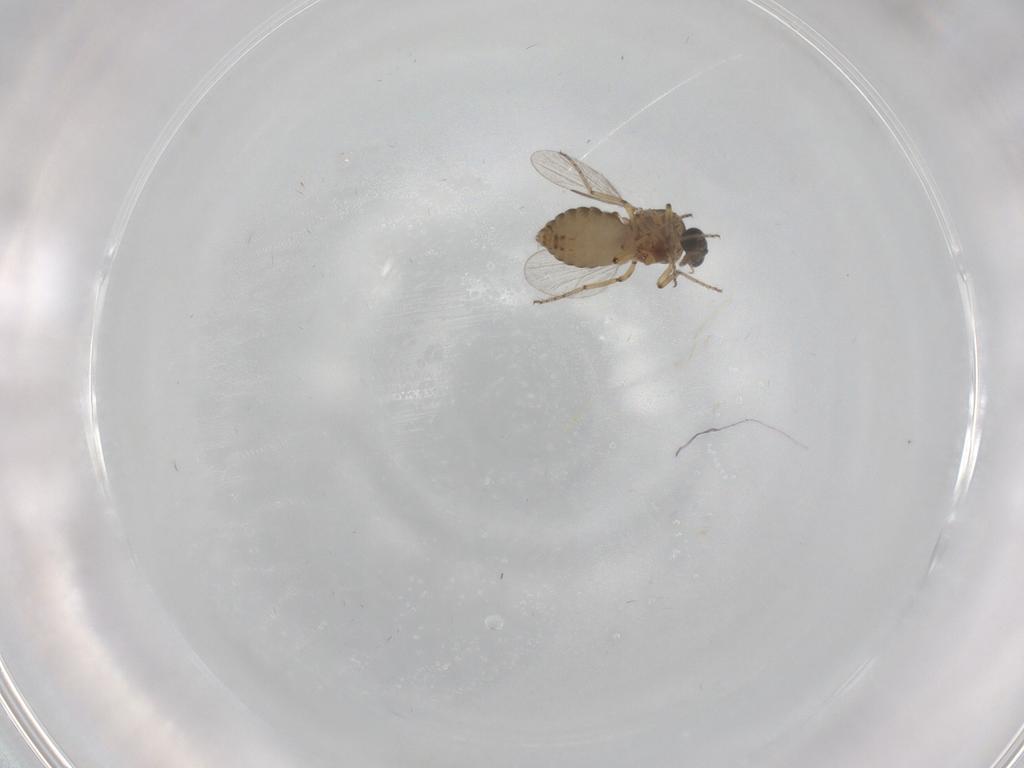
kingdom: Animalia
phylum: Arthropoda
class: Insecta
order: Diptera
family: Ceratopogonidae
